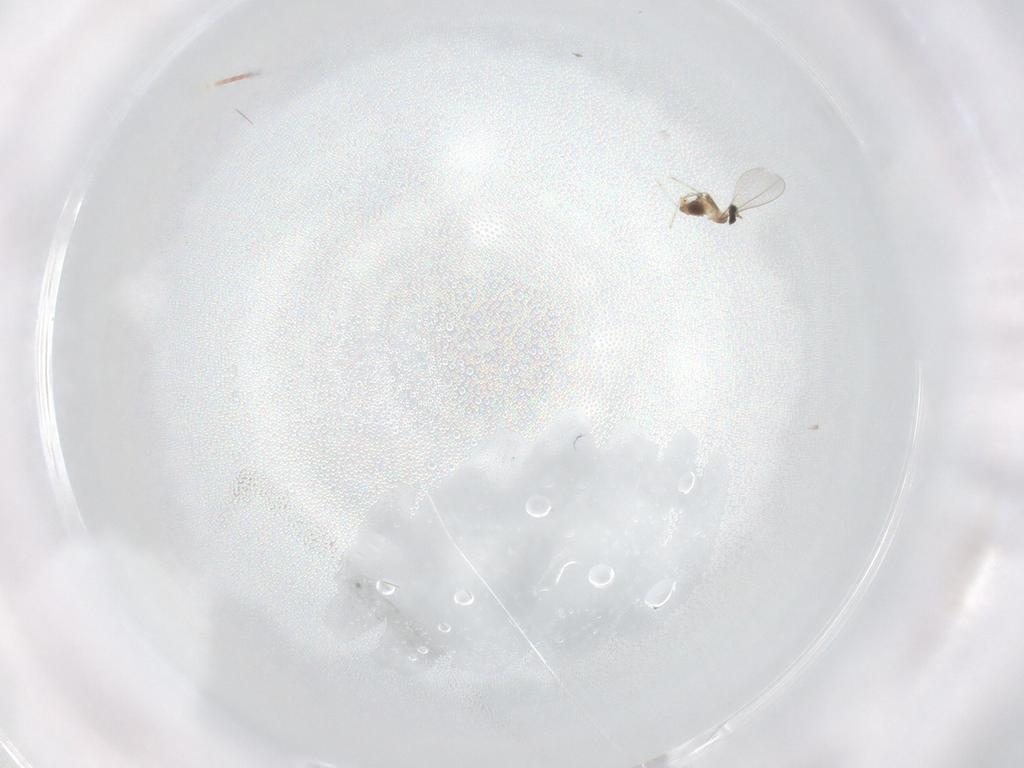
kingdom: Animalia
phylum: Arthropoda
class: Insecta
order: Diptera
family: Cecidomyiidae
